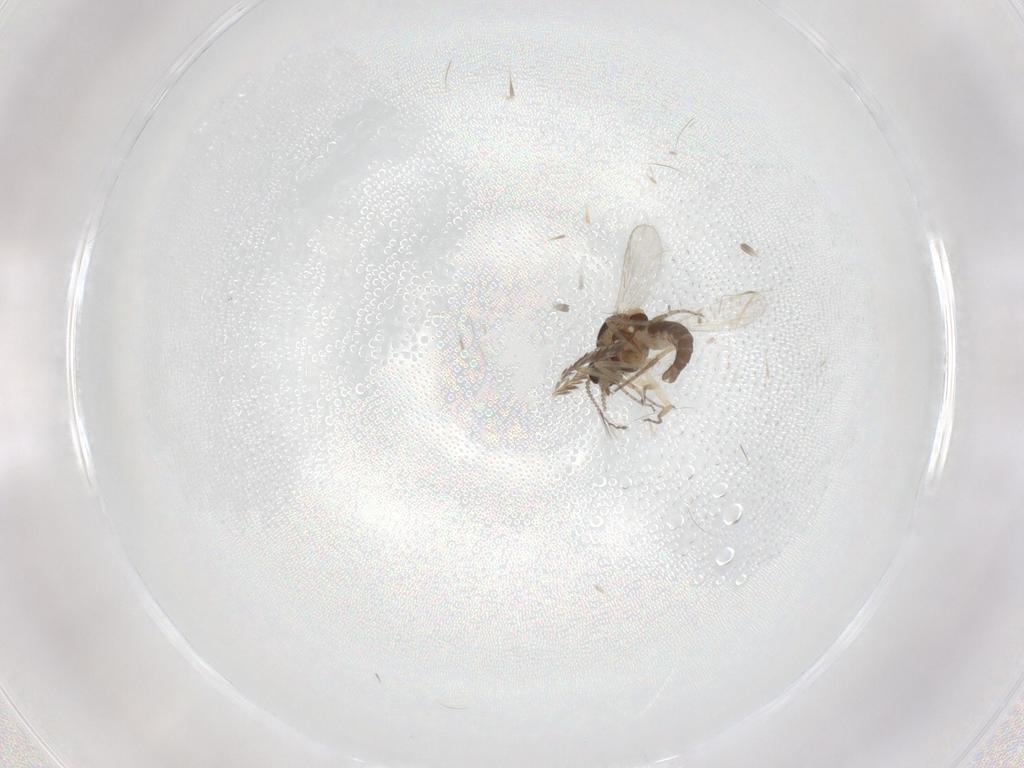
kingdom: Animalia
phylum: Arthropoda
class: Insecta
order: Diptera
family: Ceratopogonidae
